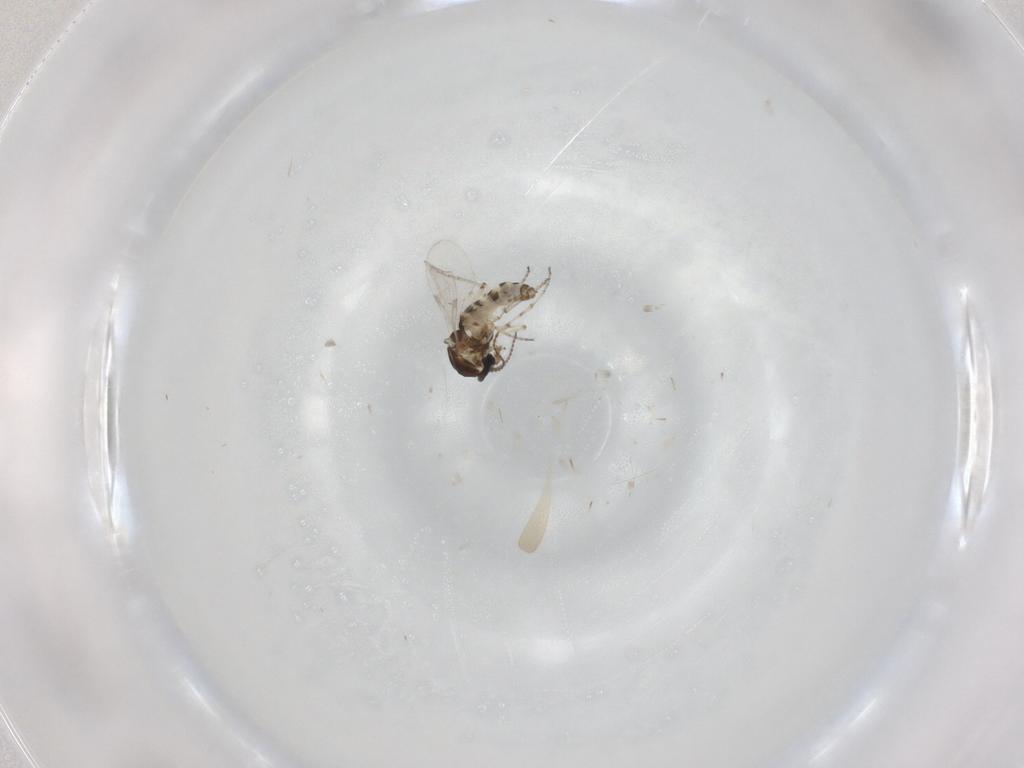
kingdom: Animalia
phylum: Arthropoda
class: Insecta
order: Diptera
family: Ceratopogonidae
